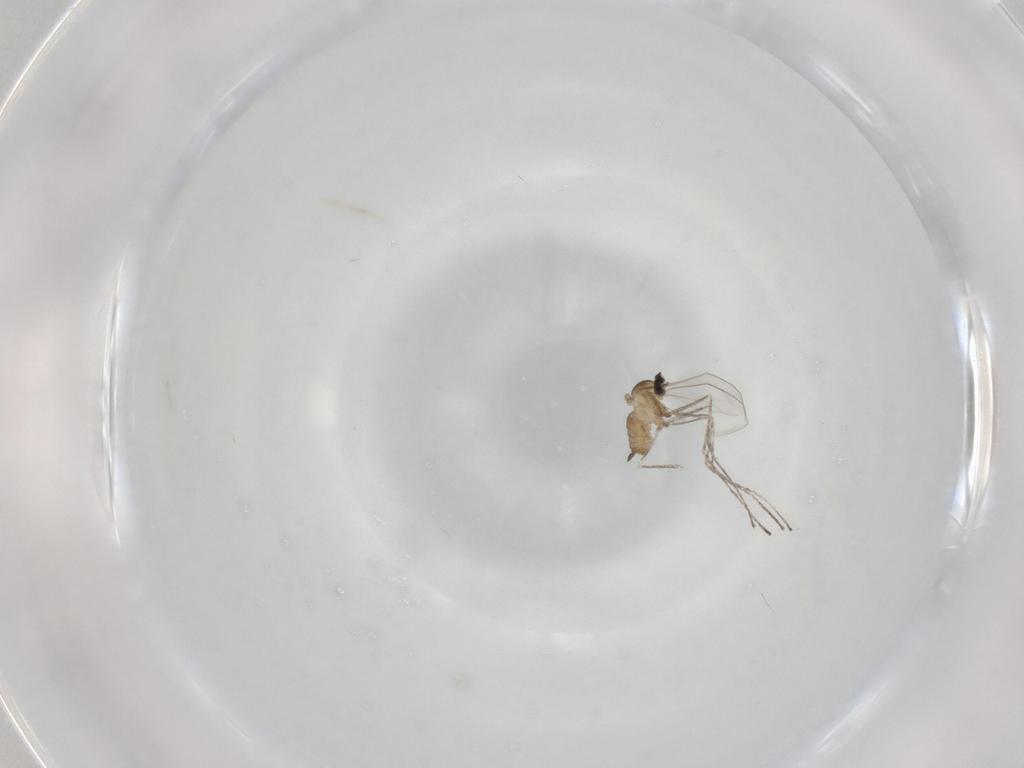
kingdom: Animalia
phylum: Arthropoda
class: Insecta
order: Diptera
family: Cecidomyiidae
